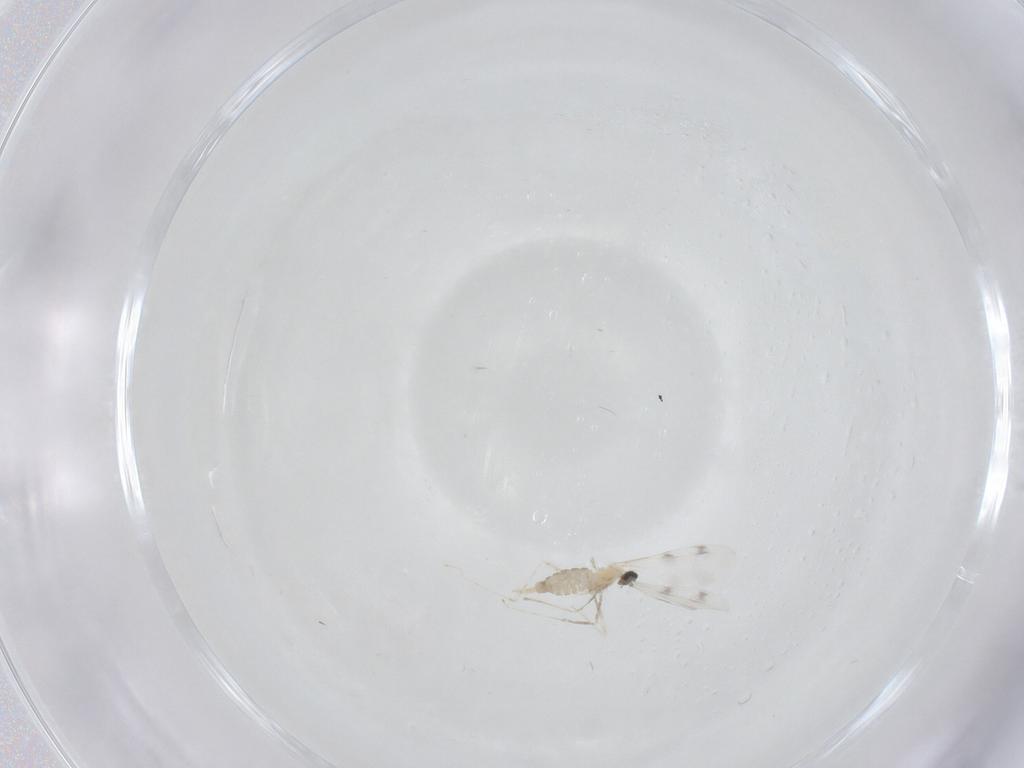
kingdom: Animalia
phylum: Arthropoda
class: Insecta
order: Diptera
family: Cecidomyiidae
